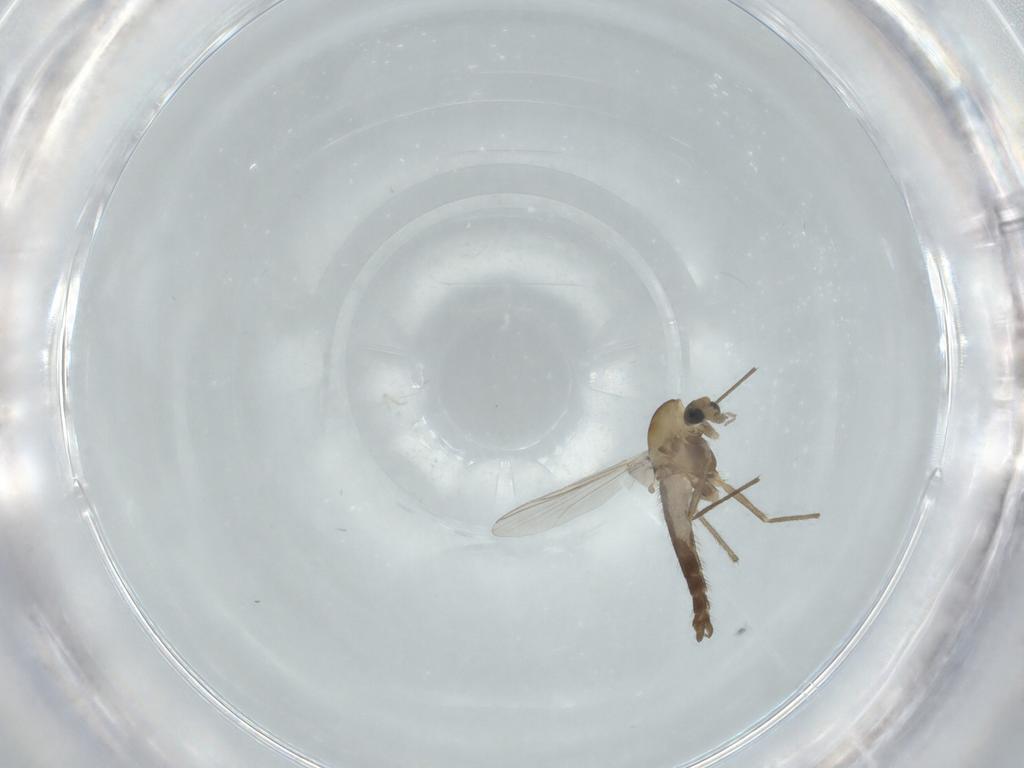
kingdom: Animalia
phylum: Arthropoda
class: Insecta
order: Diptera
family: Chironomidae
